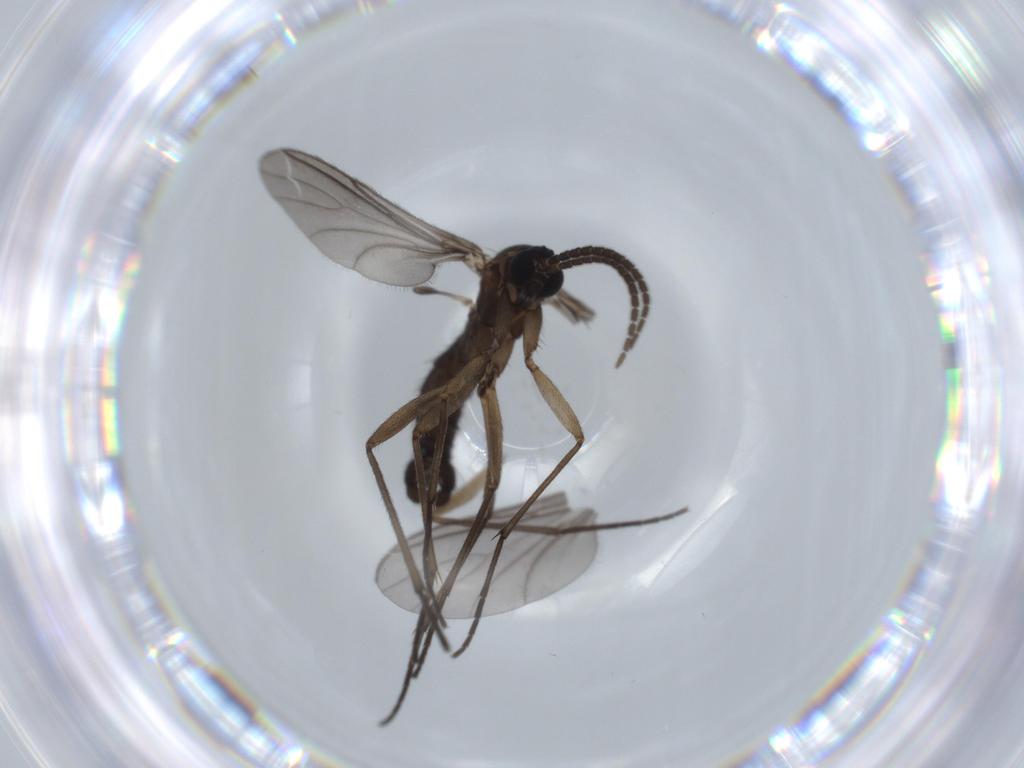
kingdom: Animalia
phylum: Arthropoda
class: Insecta
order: Diptera
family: Sciaridae
